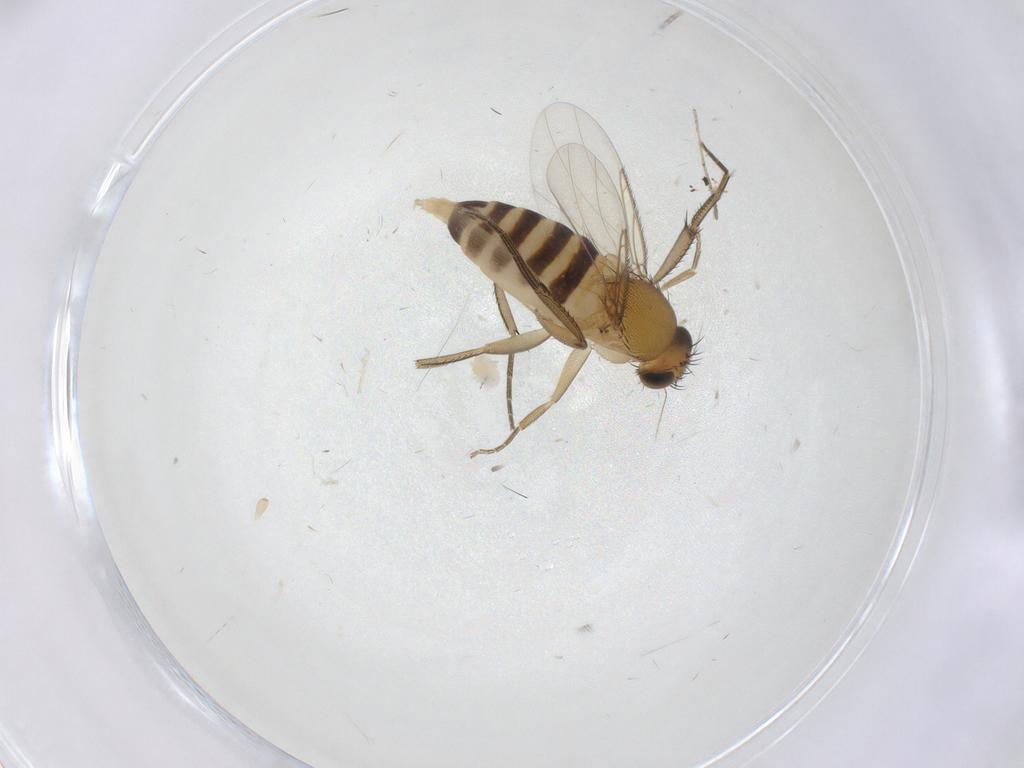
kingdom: Animalia
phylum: Arthropoda
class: Insecta
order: Diptera
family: Phoridae
